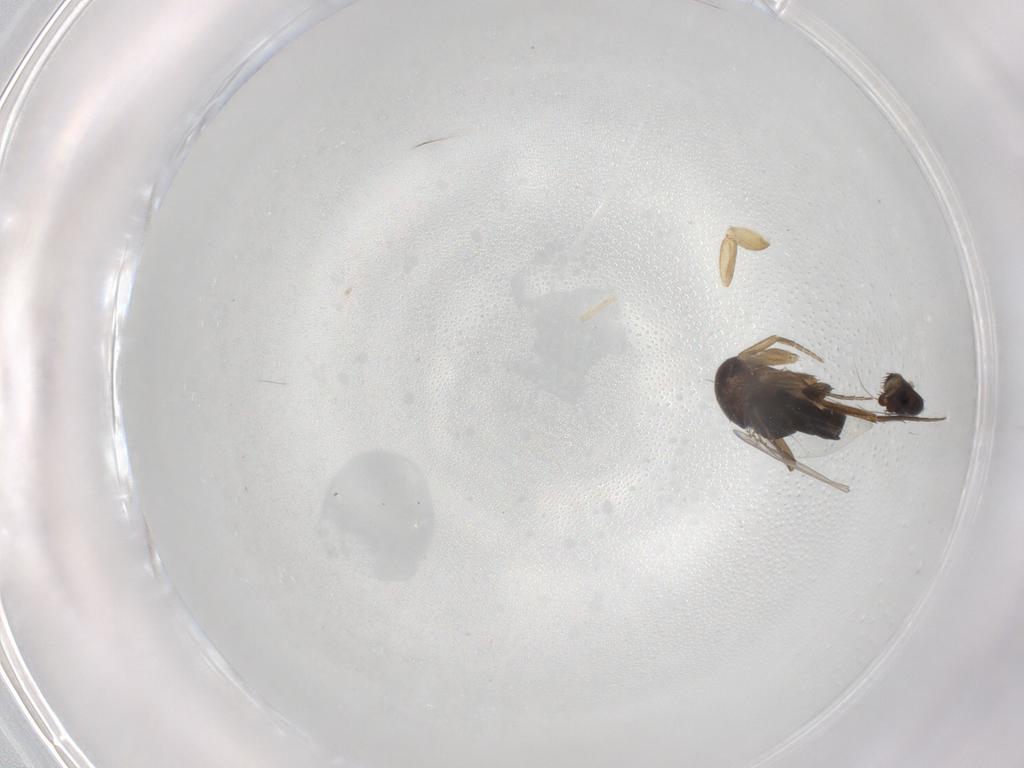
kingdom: Animalia
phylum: Arthropoda
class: Insecta
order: Diptera
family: Phoridae
